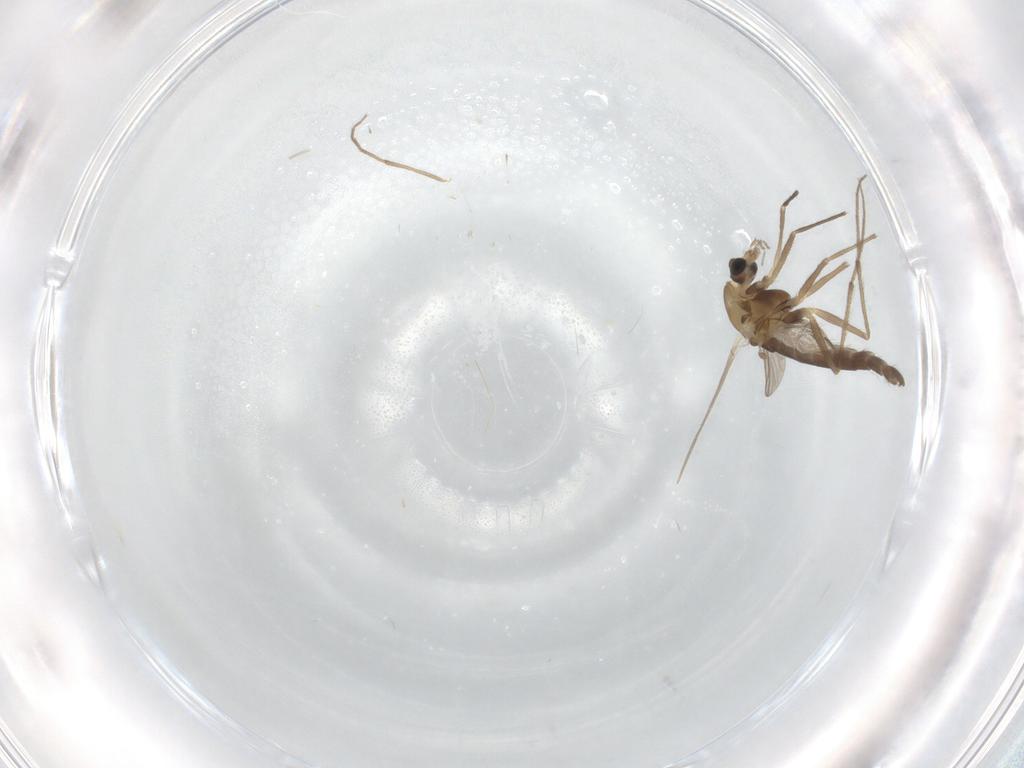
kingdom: Animalia
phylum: Arthropoda
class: Insecta
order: Diptera
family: Chironomidae
